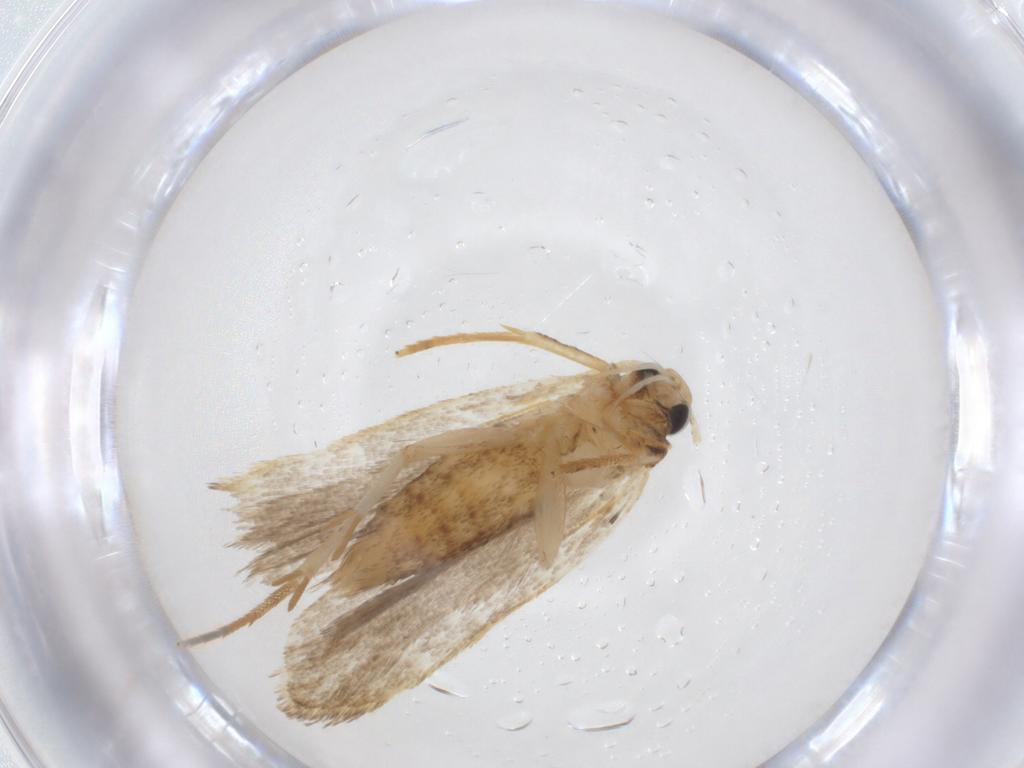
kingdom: Animalia
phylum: Arthropoda
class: Insecta
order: Lepidoptera
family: Gelechiidae
